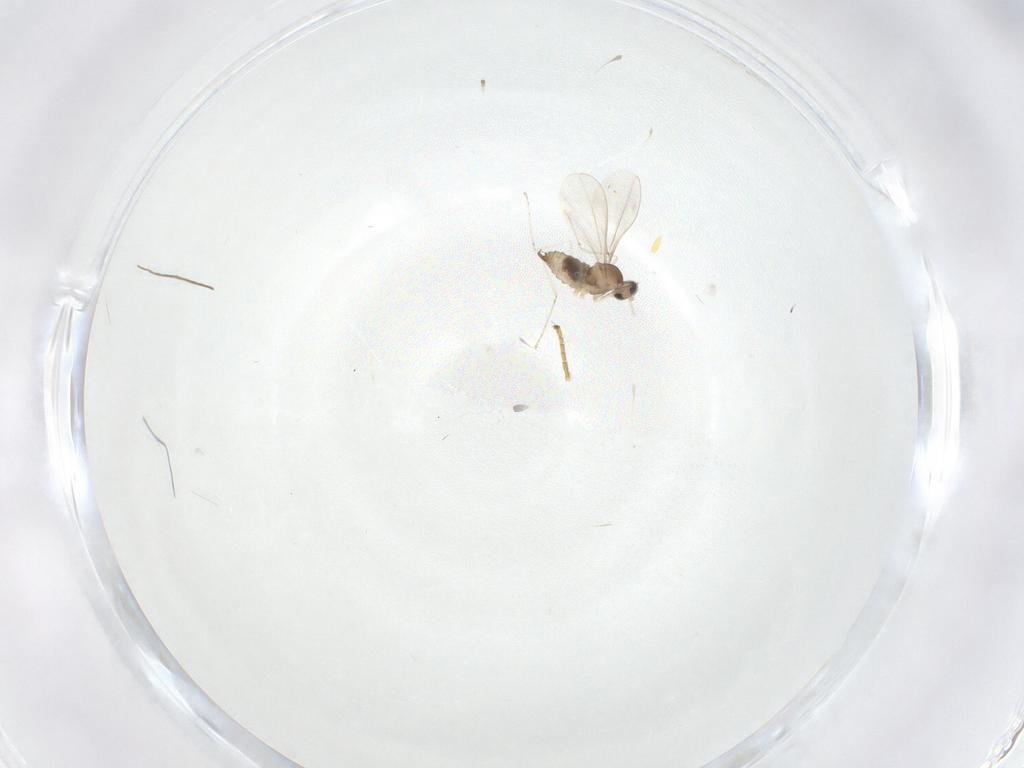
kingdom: Animalia
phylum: Arthropoda
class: Insecta
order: Diptera
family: Cecidomyiidae
